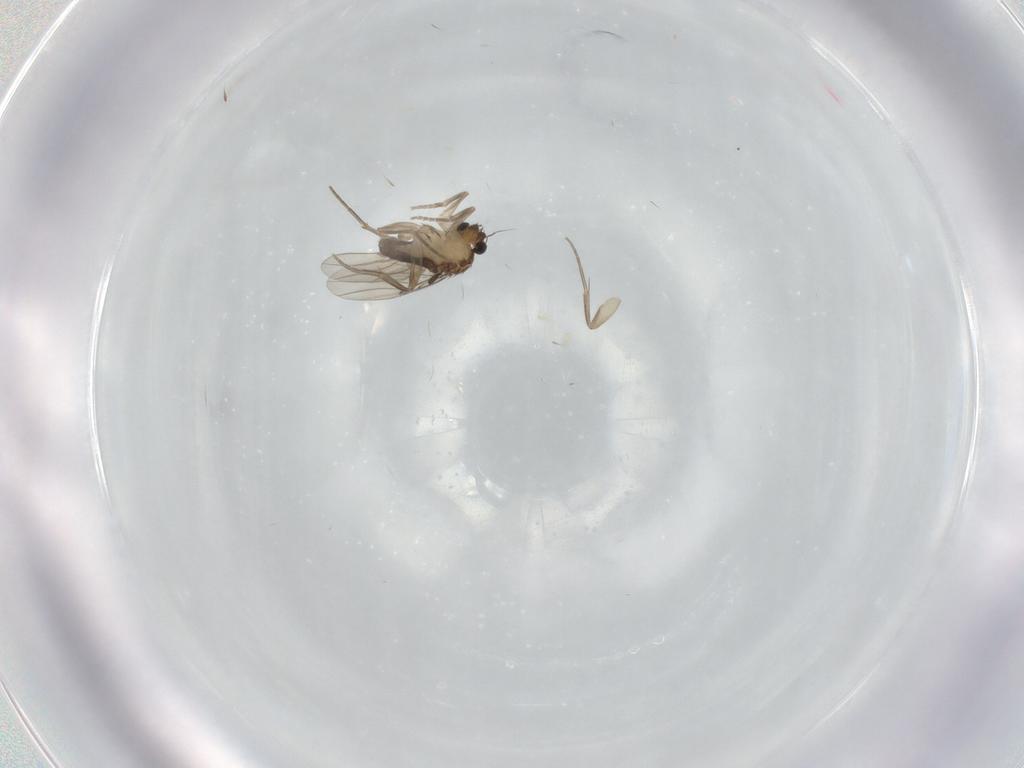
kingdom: Animalia
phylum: Arthropoda
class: Insecta
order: Diptera
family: Phoridae
